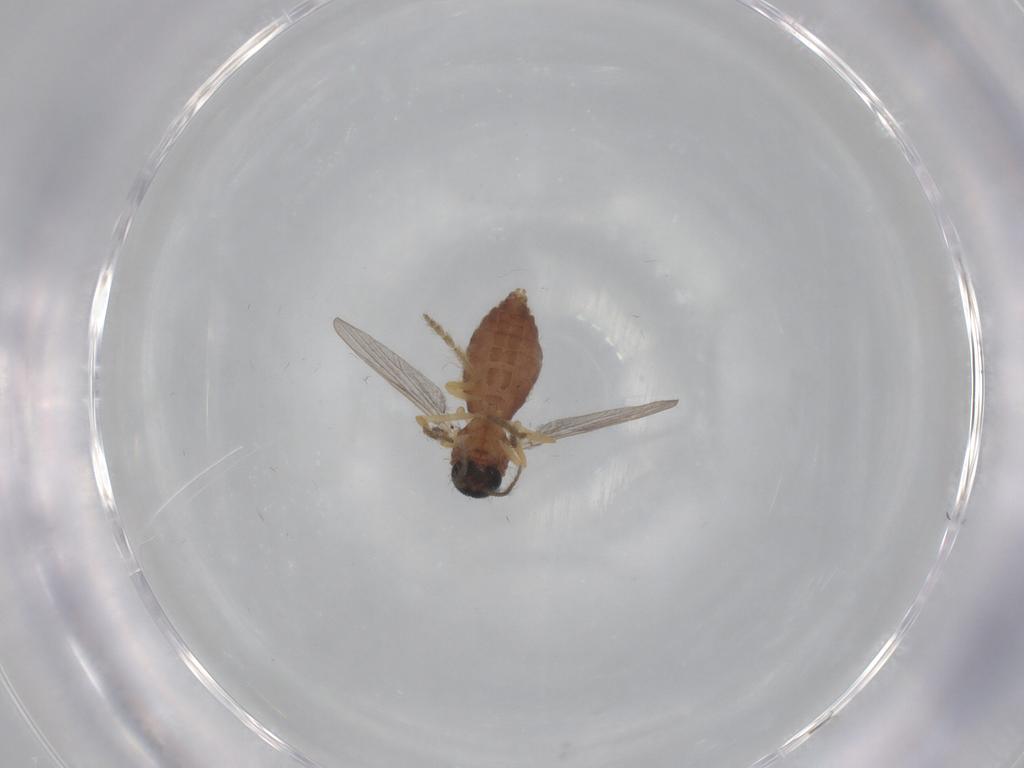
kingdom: Animalia
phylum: Arthropoda
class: Insecta
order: Diptera
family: Ceratopogonidae
